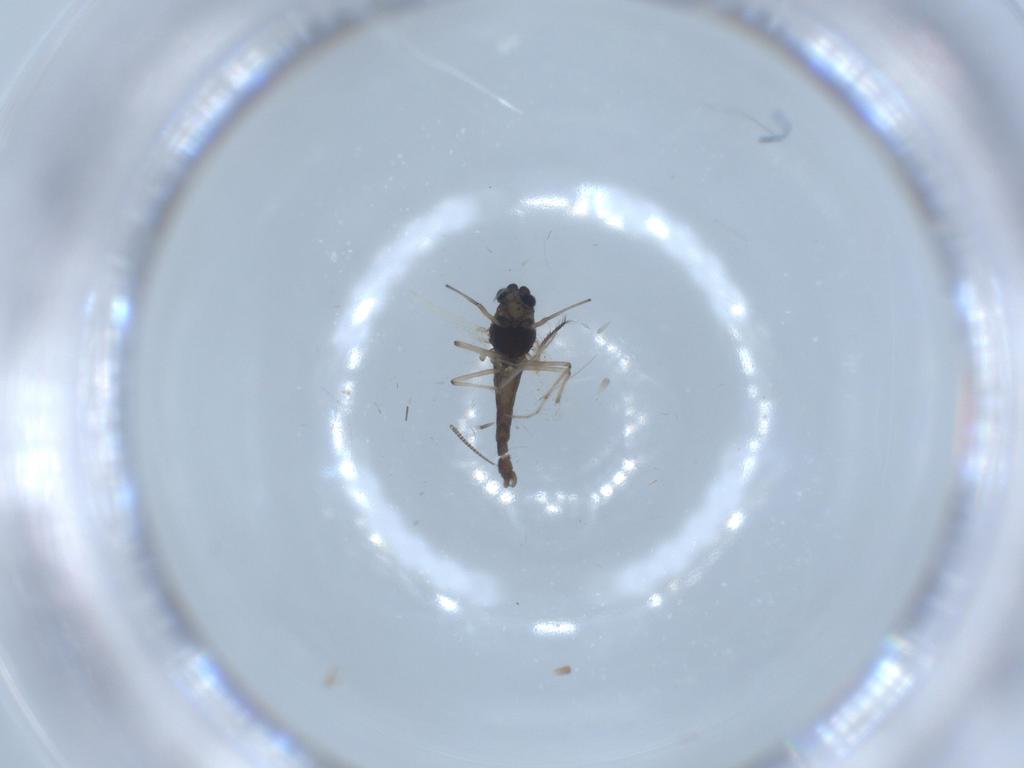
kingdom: Animalia
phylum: Arthropoda
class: Insecta
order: Diptera
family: Chironomidae
